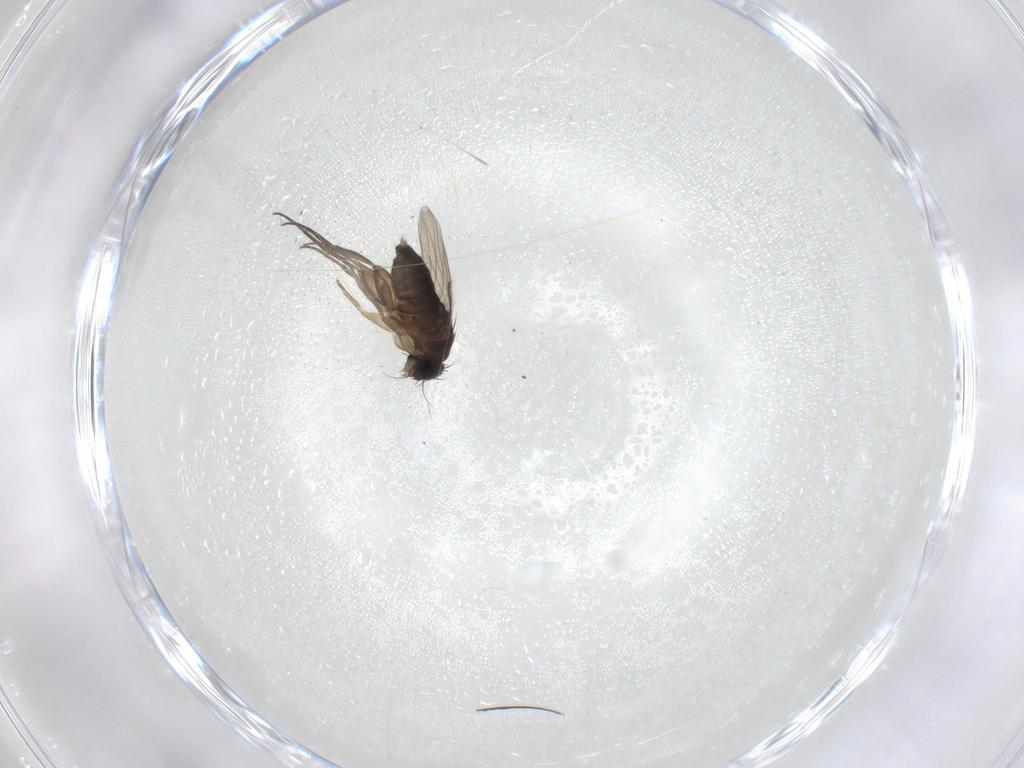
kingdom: Animalia
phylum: Arthropoda
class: Insecta
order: Diptera
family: Phoridae
